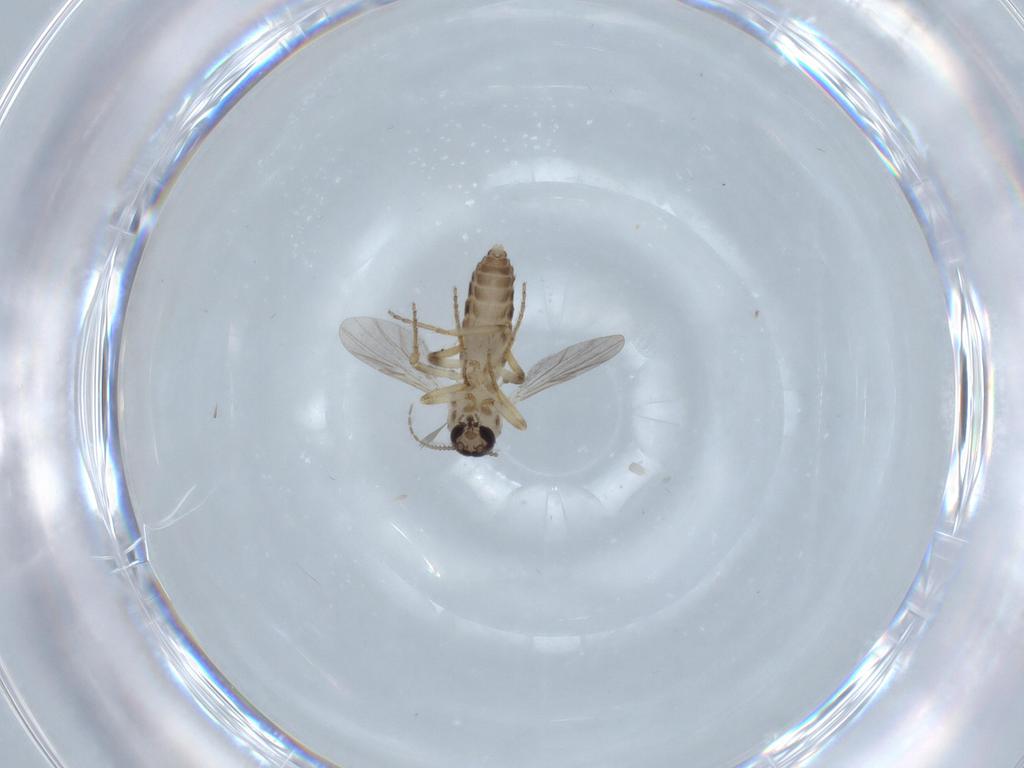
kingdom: Animalia
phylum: Arthropoda
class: Insecta
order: Diptera
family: Ceratopogonidae
